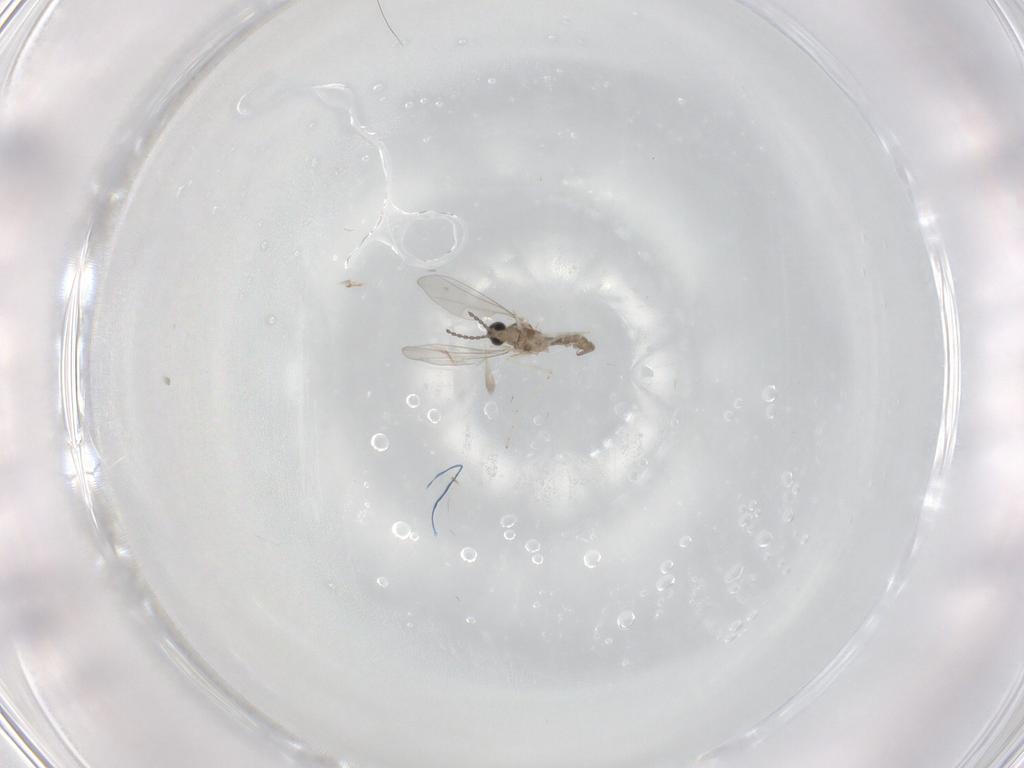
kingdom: Animalia
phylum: Arthropoda
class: Insecta
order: Diptera
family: Cecidomyiidae
